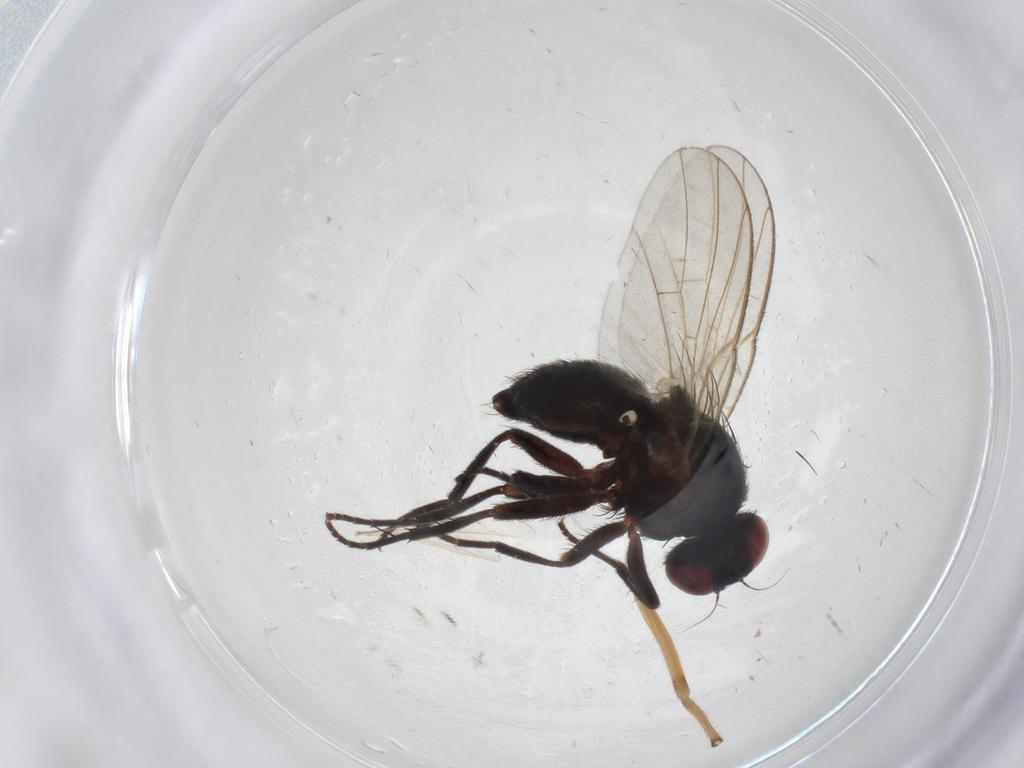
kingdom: Animalia
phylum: Arthropoda
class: Insecta
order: Diptera
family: Agromyzidae
